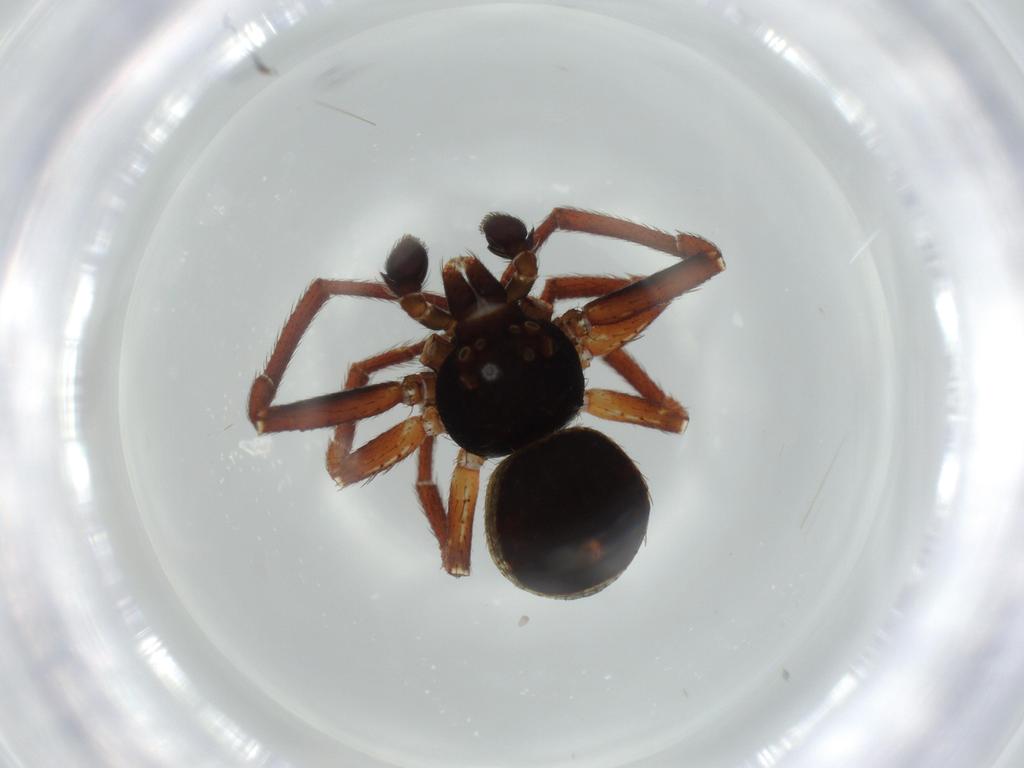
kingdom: Animalia
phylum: Arthropoda
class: Arachnida
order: Araneae
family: Thomisidae
